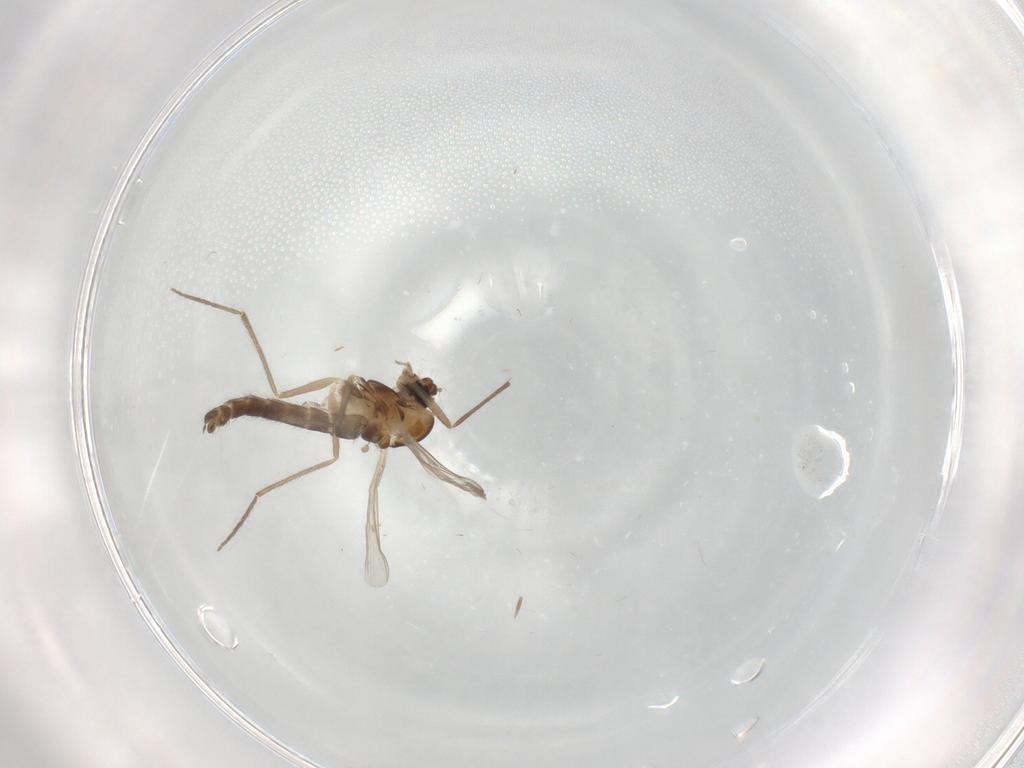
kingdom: Animalia
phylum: Arthropoda
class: Insecta
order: Diptera
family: Chironomidae
